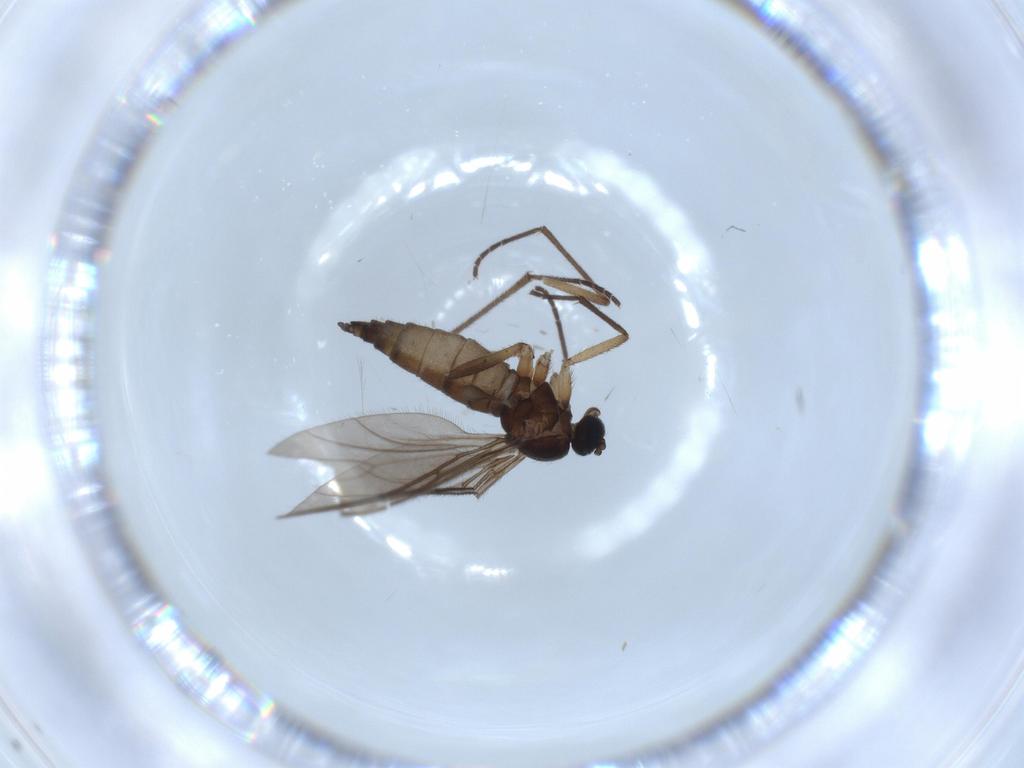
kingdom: Animalia
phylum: Arthropoda
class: Insecta
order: Diptera
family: Sciaridae
